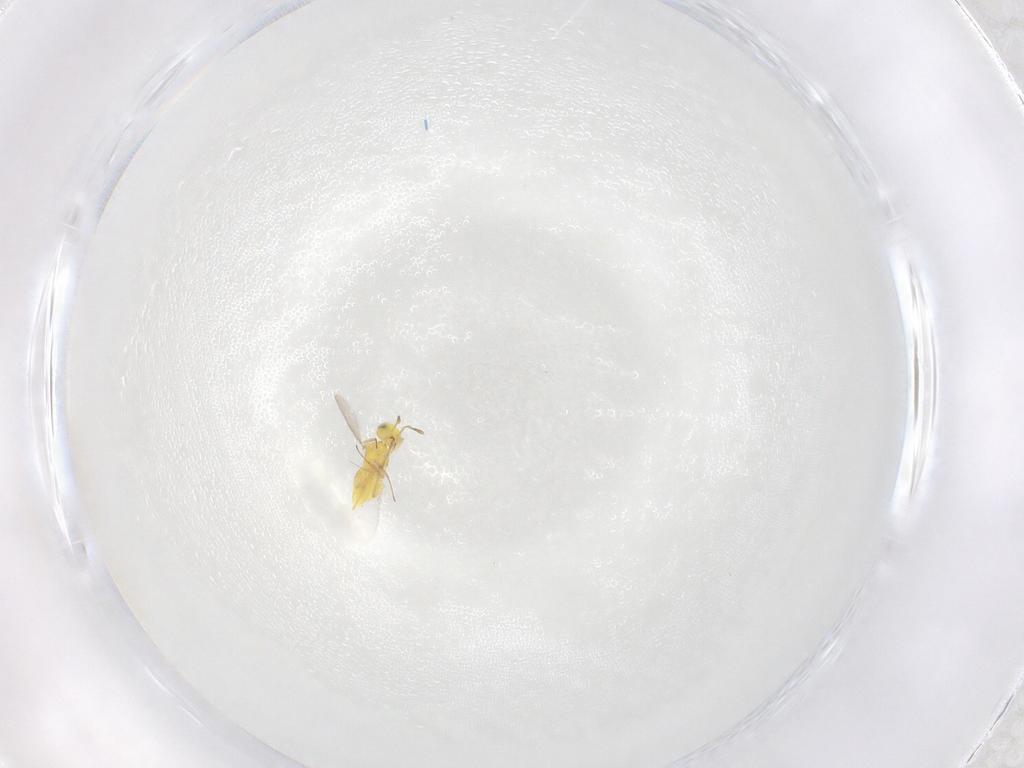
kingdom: Animalia
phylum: Arthropoda
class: Insecta
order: Hymenoptera
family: Aphelinidae
